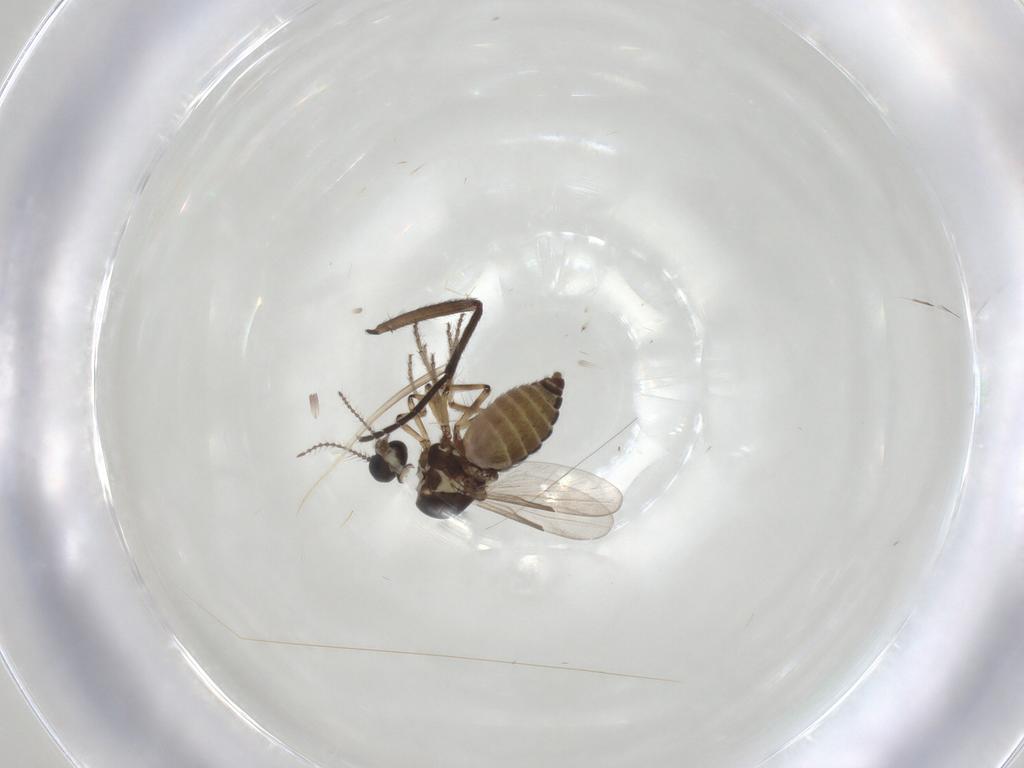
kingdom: Animalia
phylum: Arthropoda
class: Insecta
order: Diptera
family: Ceratopogonidae
